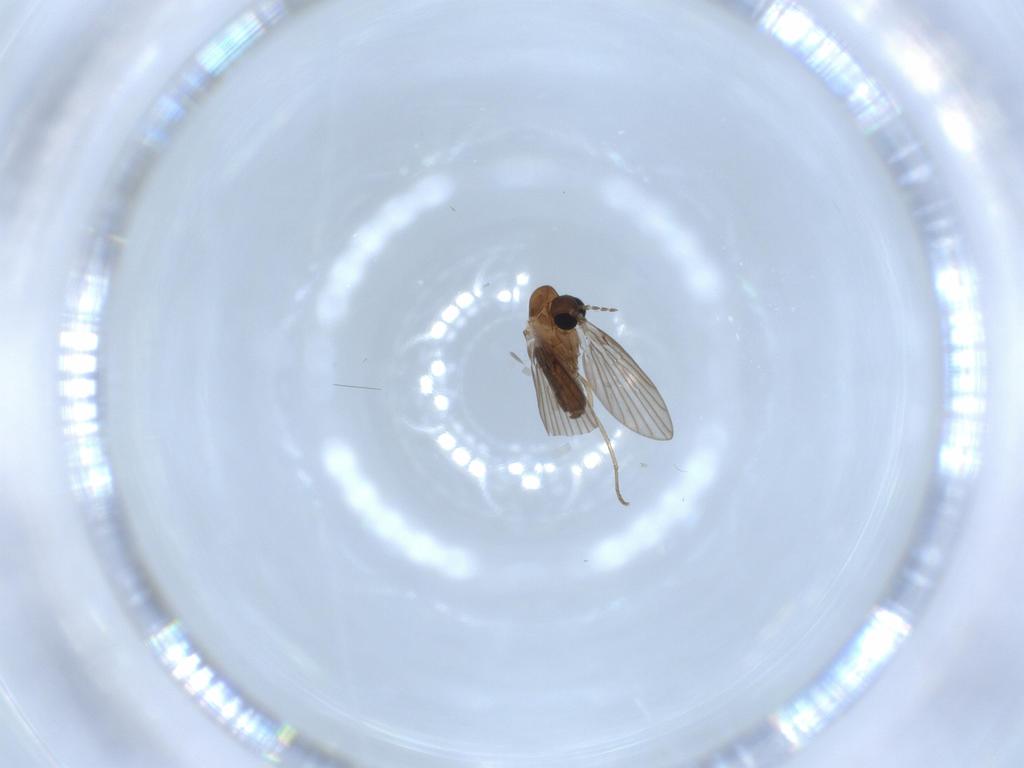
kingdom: Animalia
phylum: Arthropoda
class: Insecta
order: Diptera
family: Psychodidae
